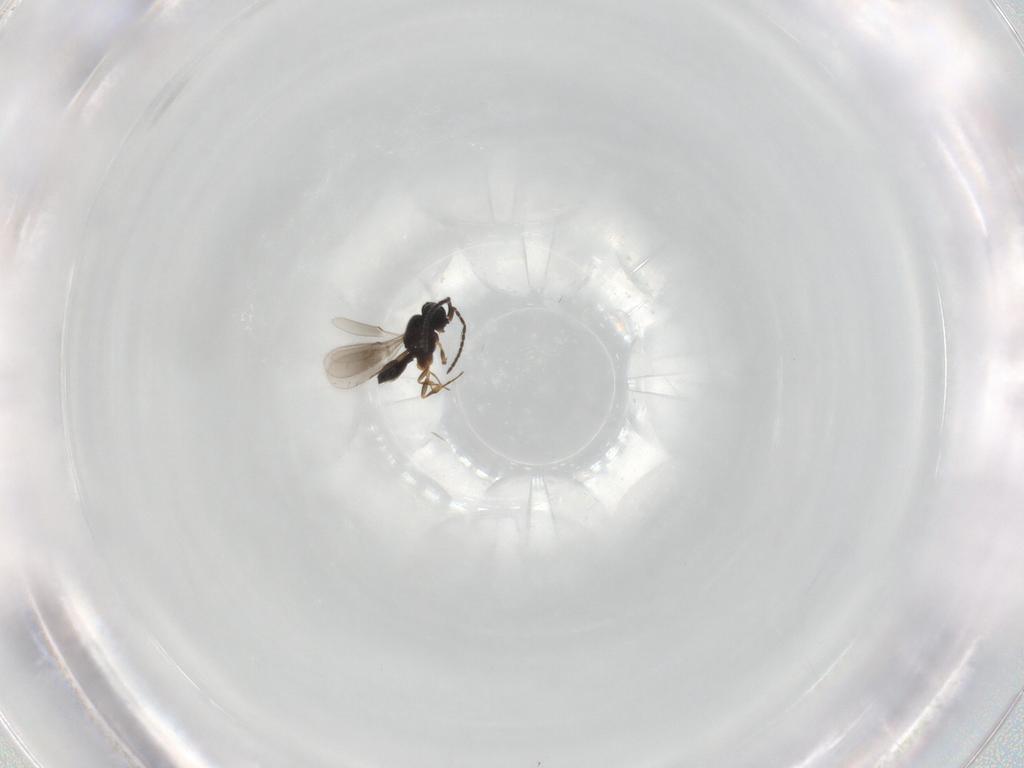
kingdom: Animalia
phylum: Arthropoda
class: Insecta
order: Hymenoptera
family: Scelionidae
